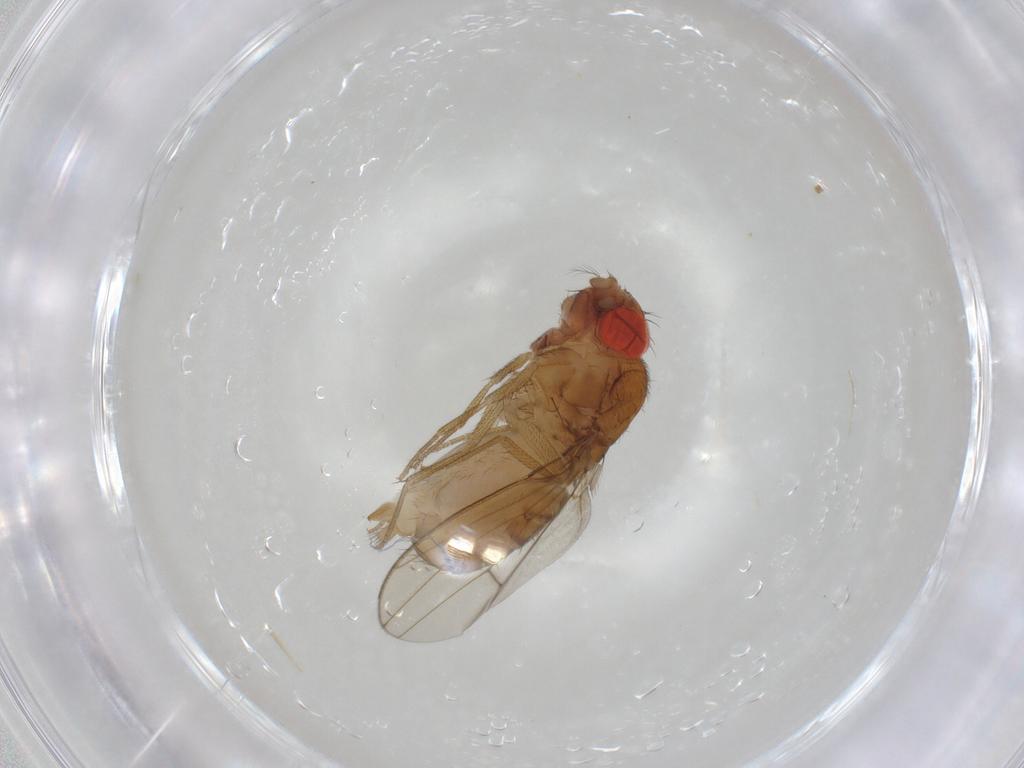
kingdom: Animalia
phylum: Arthropoda
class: Insecta
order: Diptera
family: Drosophilidae
